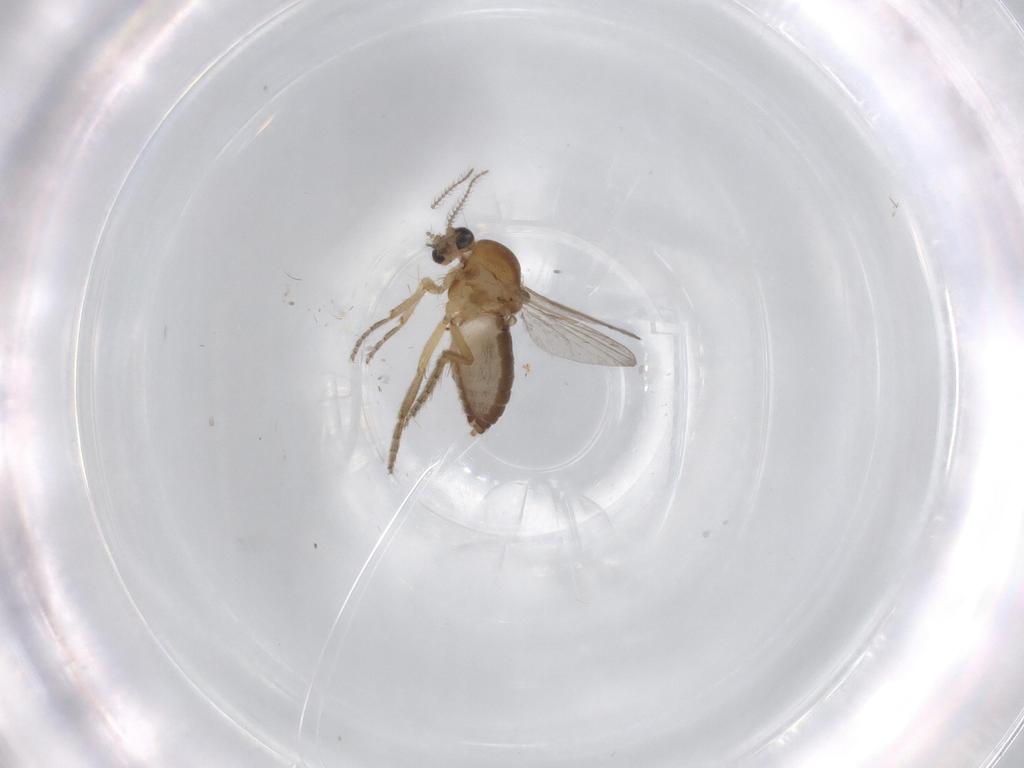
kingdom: Animalia
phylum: Arthropoda
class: Insecta
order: Diptera
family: Ceratopogonidae
